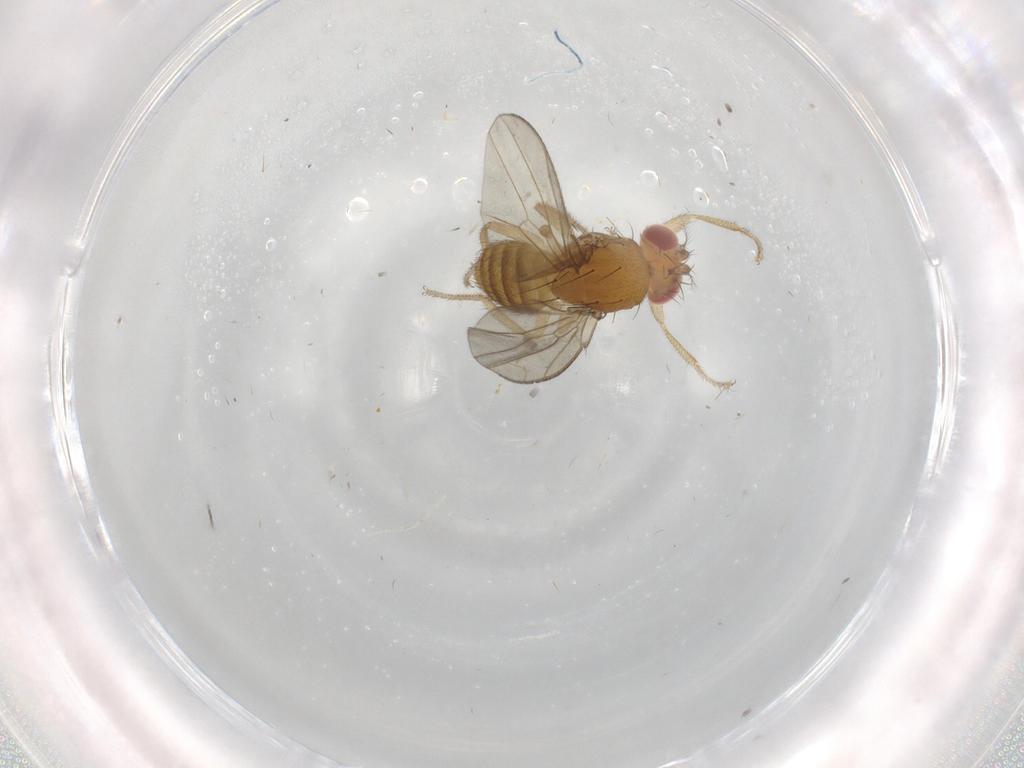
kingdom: Animalia
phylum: Arthropoda
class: Insecta
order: Diptera
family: Drosophilidae
